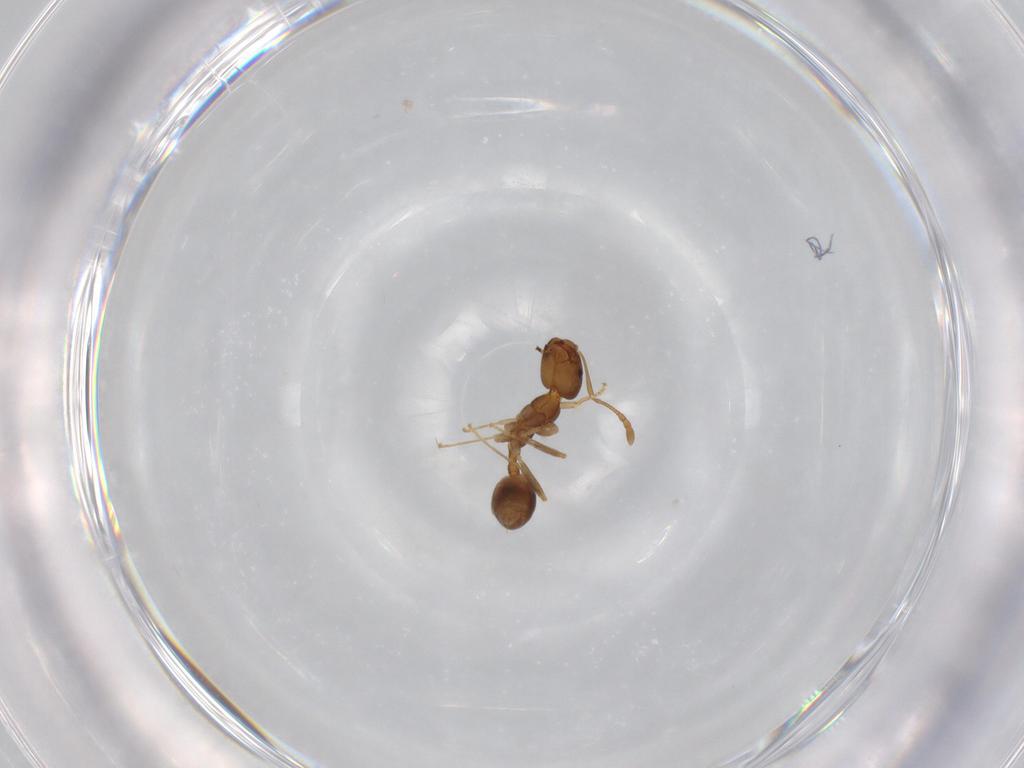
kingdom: Animalia
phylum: Arthropoda
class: Insecta
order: Hymenoptera
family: Formicidae
